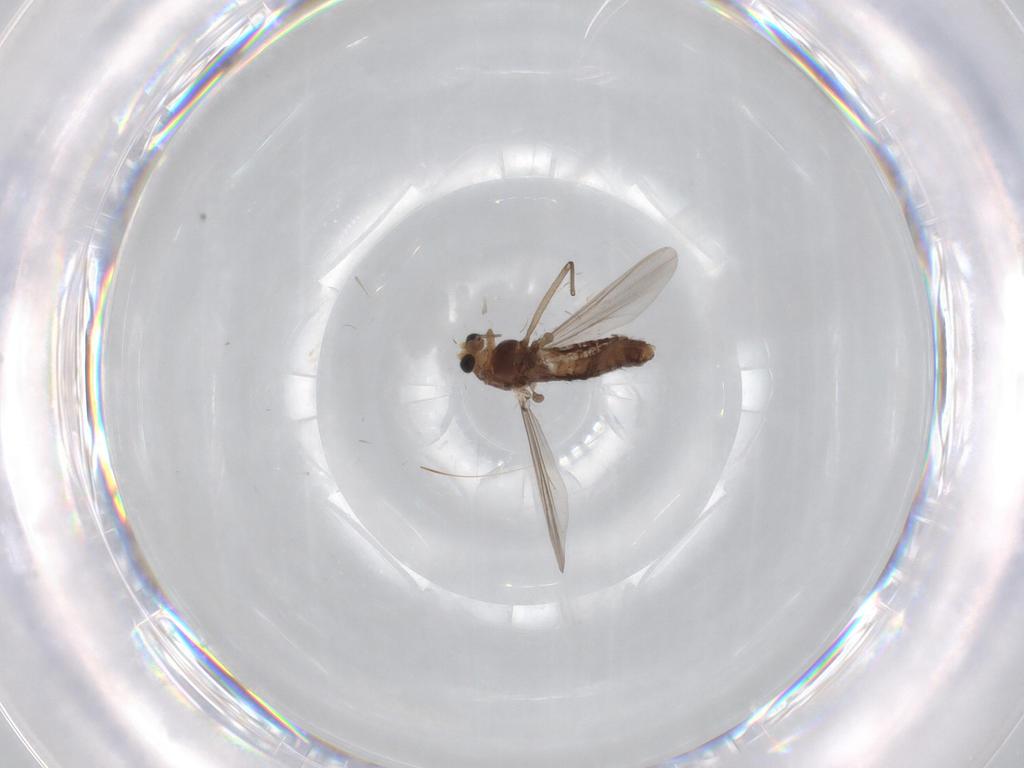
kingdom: Animalia
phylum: Arthropoda
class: Insecta
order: Diptera
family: Chironomidae
